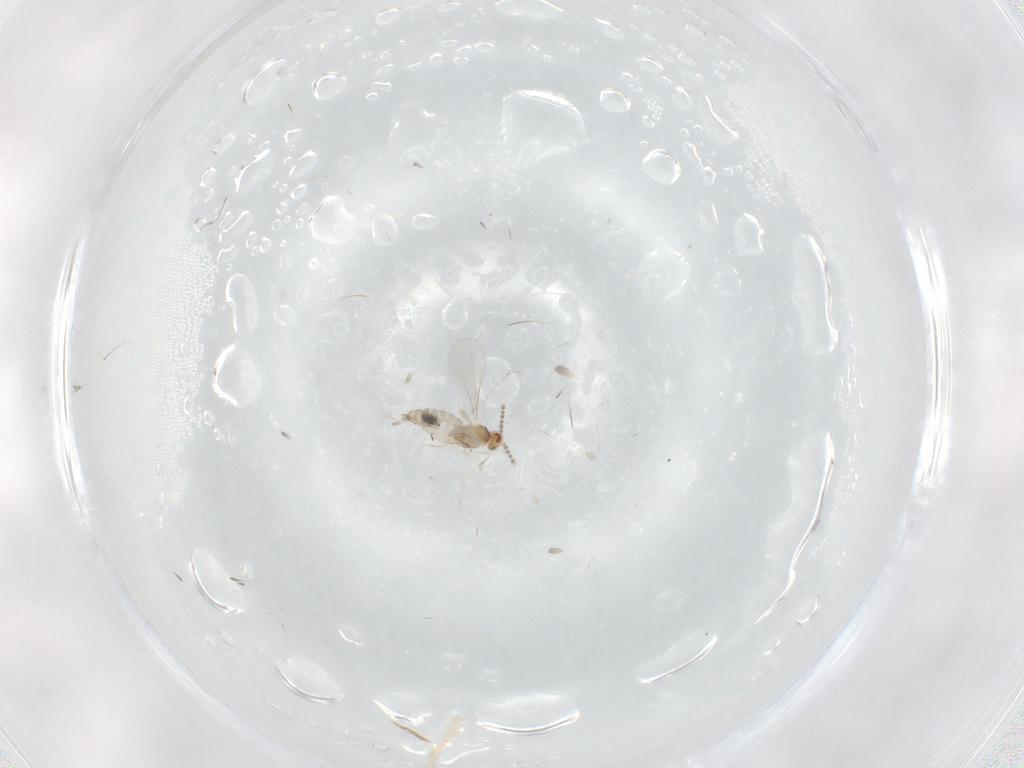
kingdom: Animalia
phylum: Arthropoda
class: Insecta
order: Diptera
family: Cecidomyiidae
